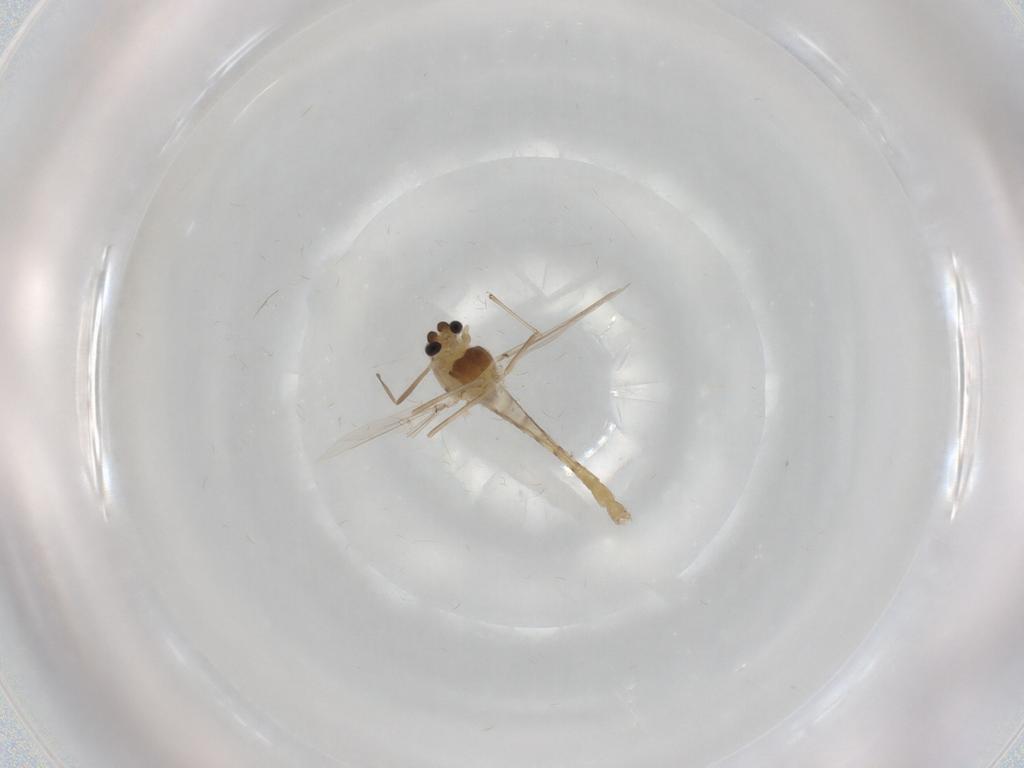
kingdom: Animalia
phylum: Arthropoda
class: Insecta
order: Diptera
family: Chironomidae
